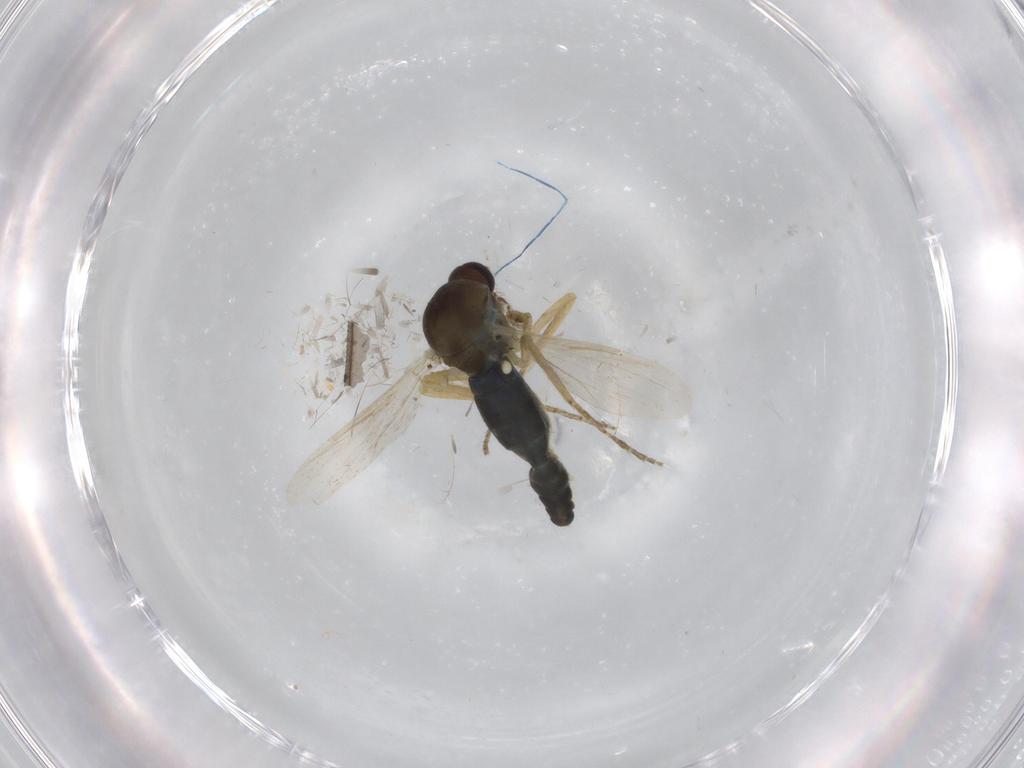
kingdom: Animalia
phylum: Arthropoda
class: Insecta
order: Diptera
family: Ceratopogonidae
